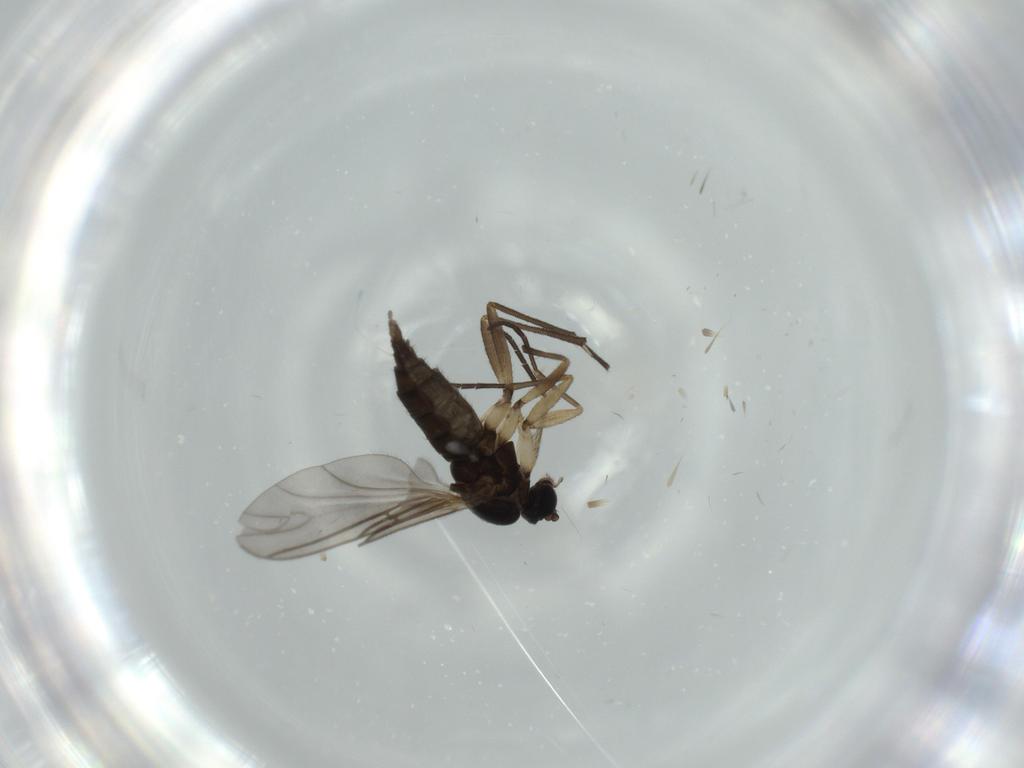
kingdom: Animalia
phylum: Arthropoda
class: Insecta
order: Diptera
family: Sciaridae
